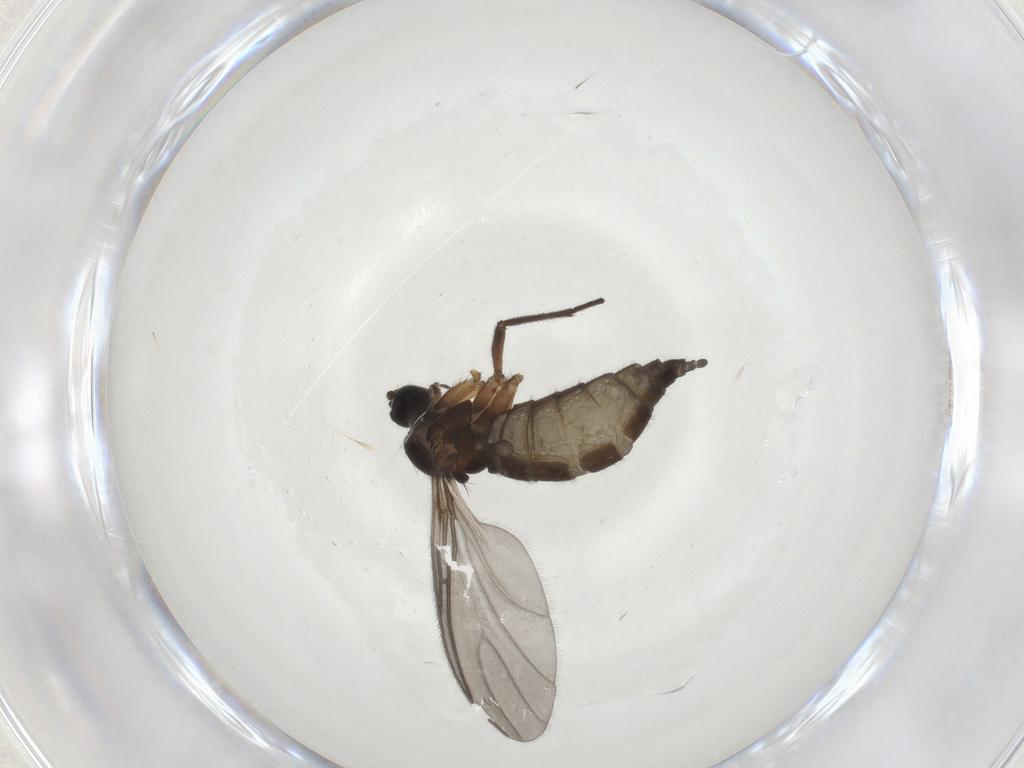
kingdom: Animalia
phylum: Arthropoda
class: Insecta
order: Diptera
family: Sciaridae
